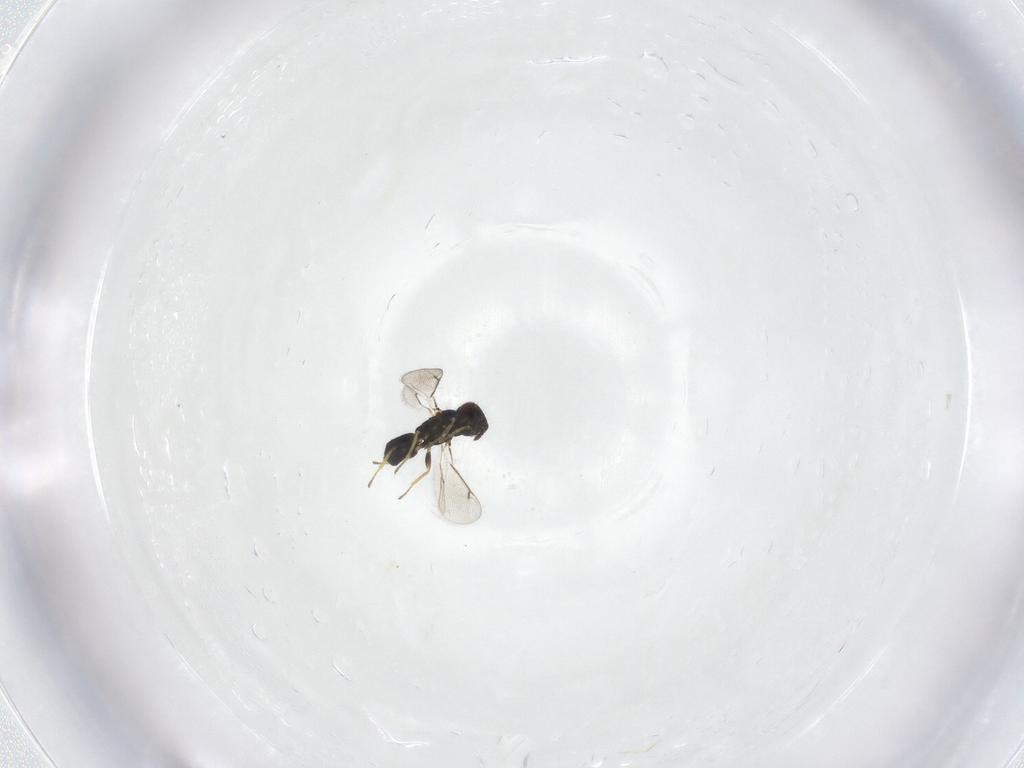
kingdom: Animalia
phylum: Arthropoda
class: Insecta
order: Hymenoptera
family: Eulophidae
